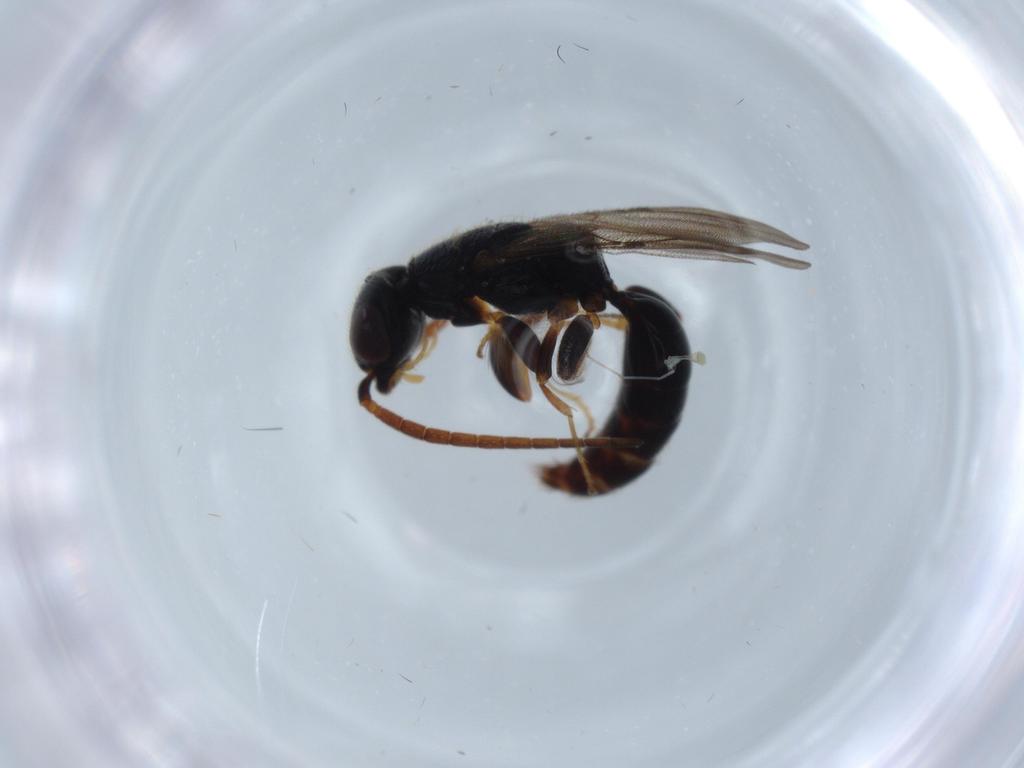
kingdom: Animalia
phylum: Arthropoda
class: Insecta
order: Hymenoptera
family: Bethylidae
